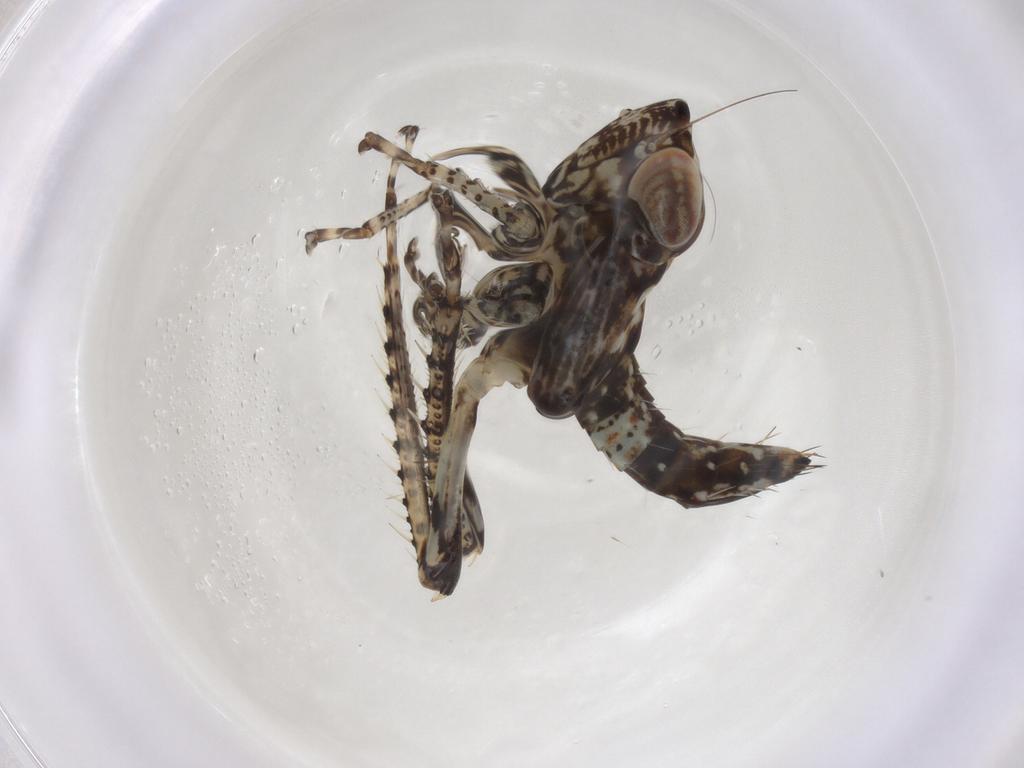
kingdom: Animalia
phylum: Arthropoda
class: Insecta
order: Hemiptera
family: Cicadellidae
